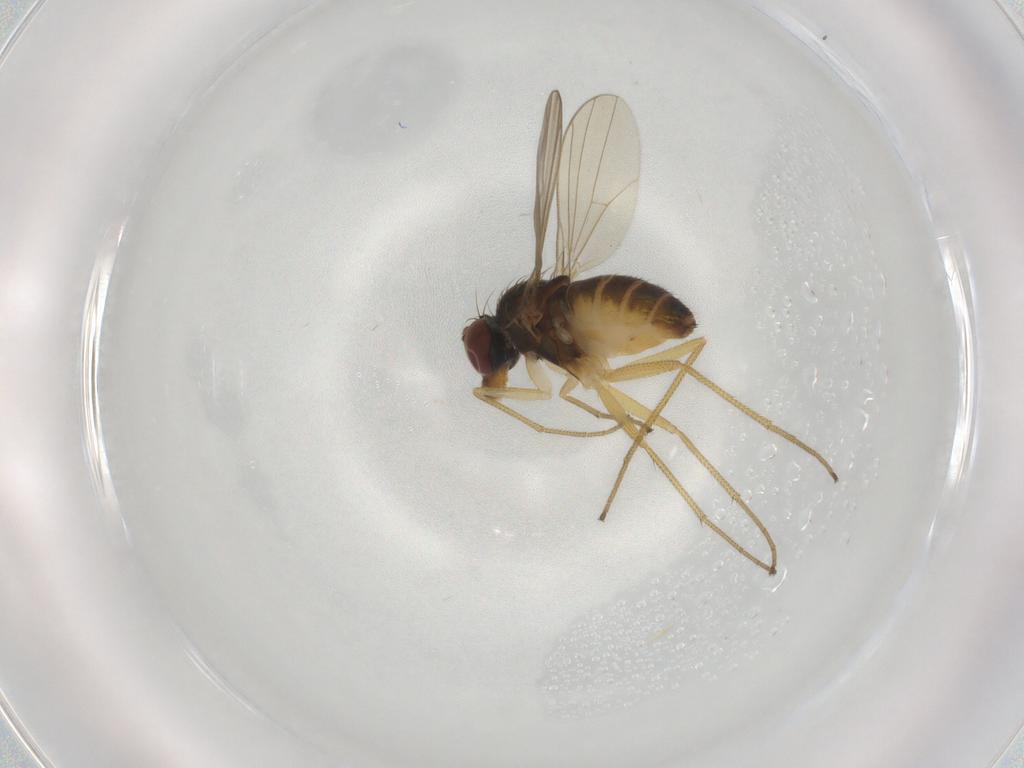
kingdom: Animalia
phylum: Arthropoda
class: Insecta
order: Diptera
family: Dolichopodidae
